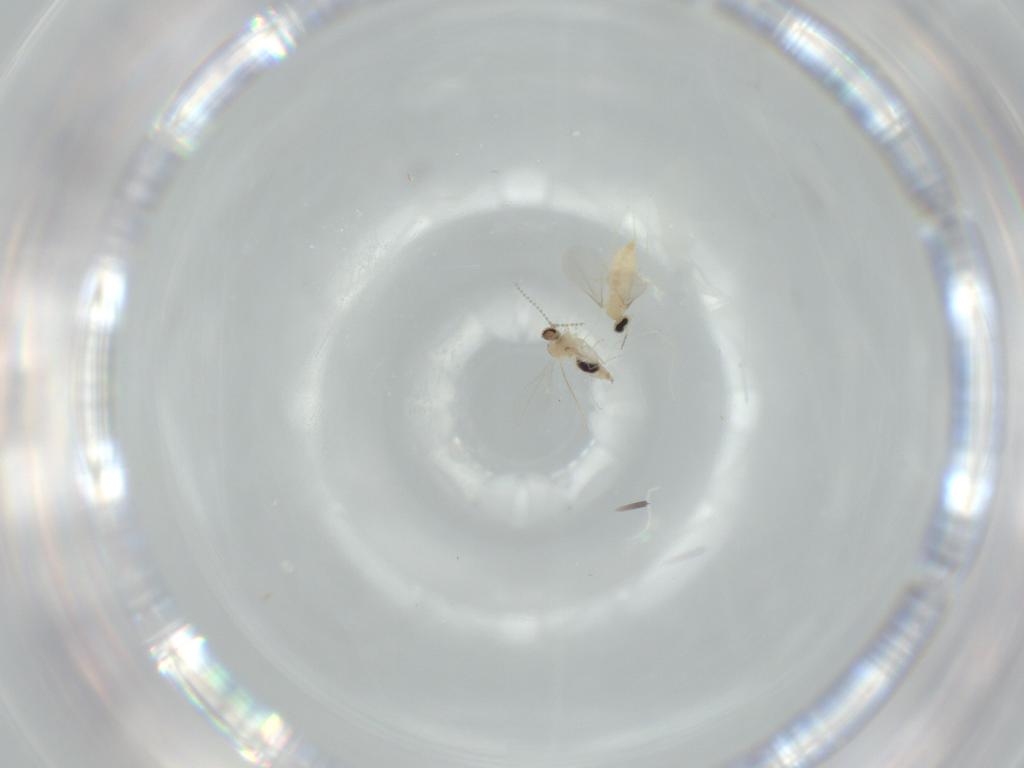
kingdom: Animalia
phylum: Arthropoda
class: Insecta
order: Diptera
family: Cecidomyiidae
